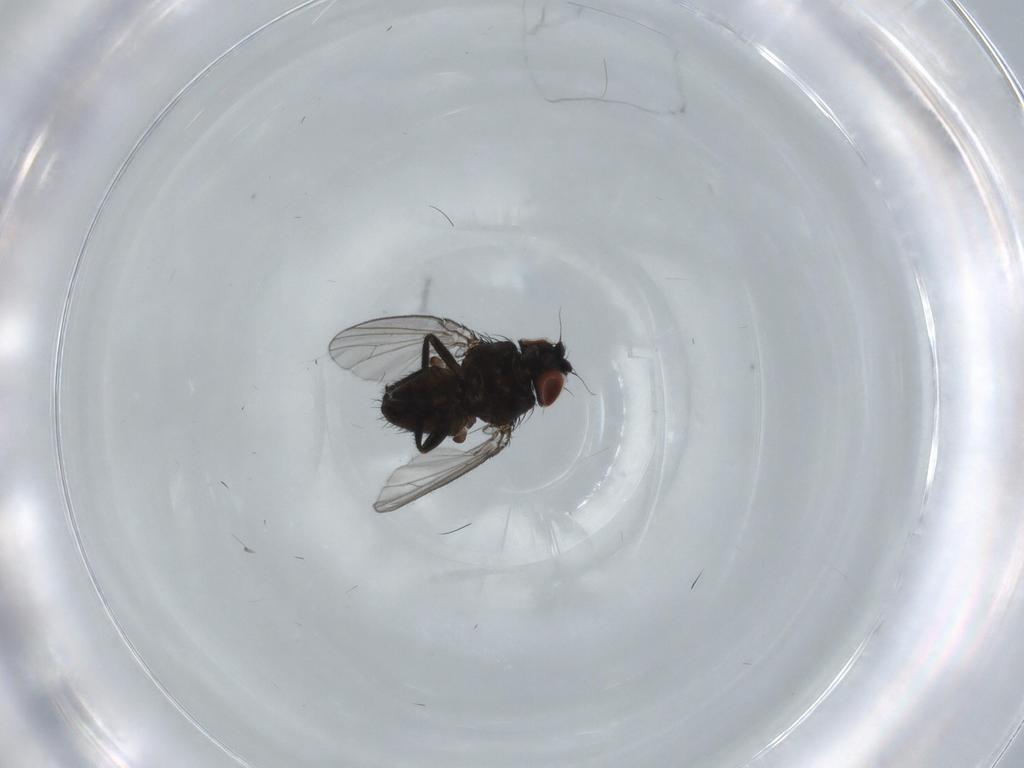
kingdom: Animalia
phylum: Arthropoda
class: Insecta
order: Diptera
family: Milichiidae
